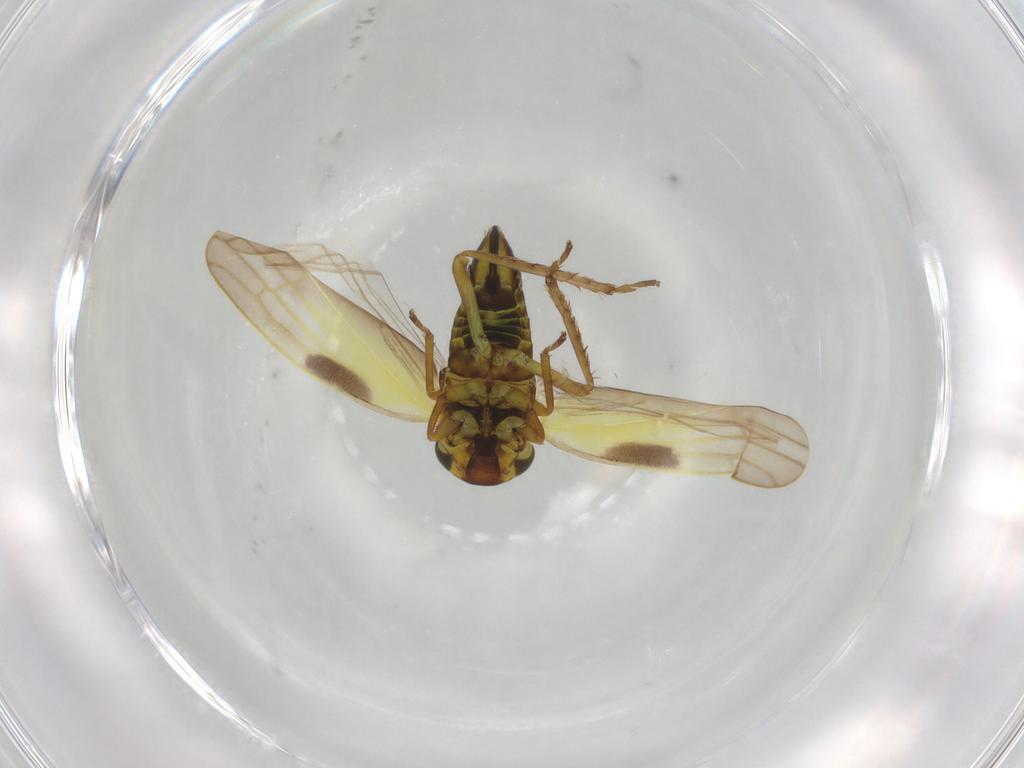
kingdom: Animalia
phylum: Arthropoda
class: Insecta
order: Hemiptera
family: Cicadellidae
